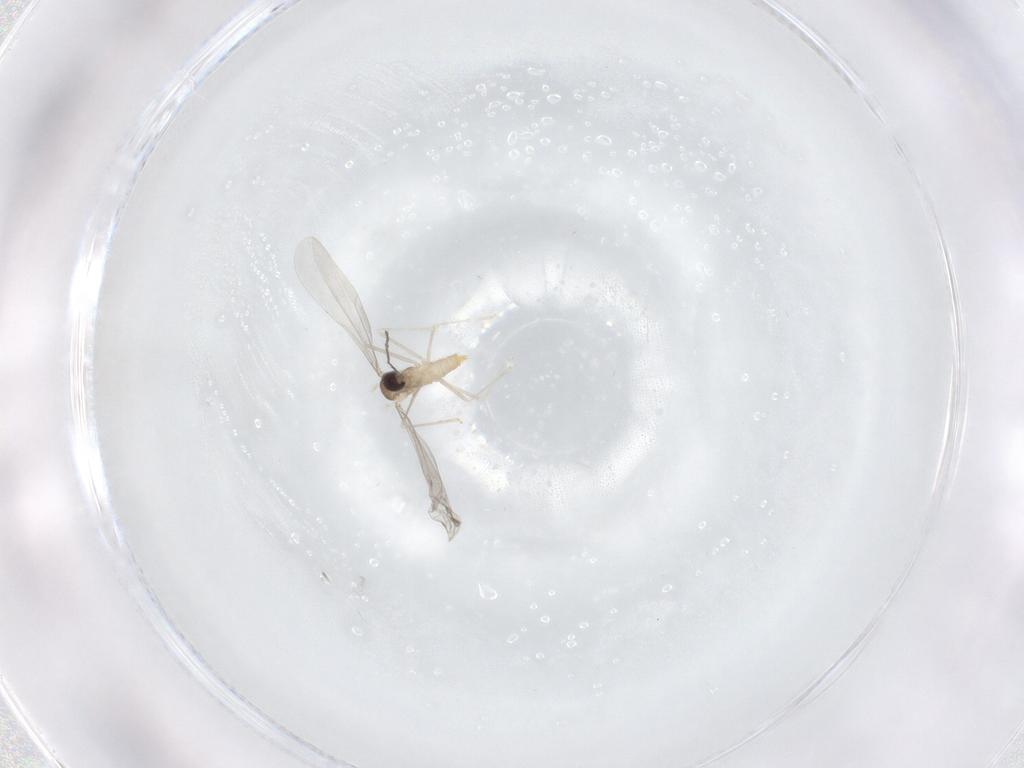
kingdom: Animalia
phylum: Arthropoda
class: Insecta
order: Diptera
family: Cecidomyiidae
